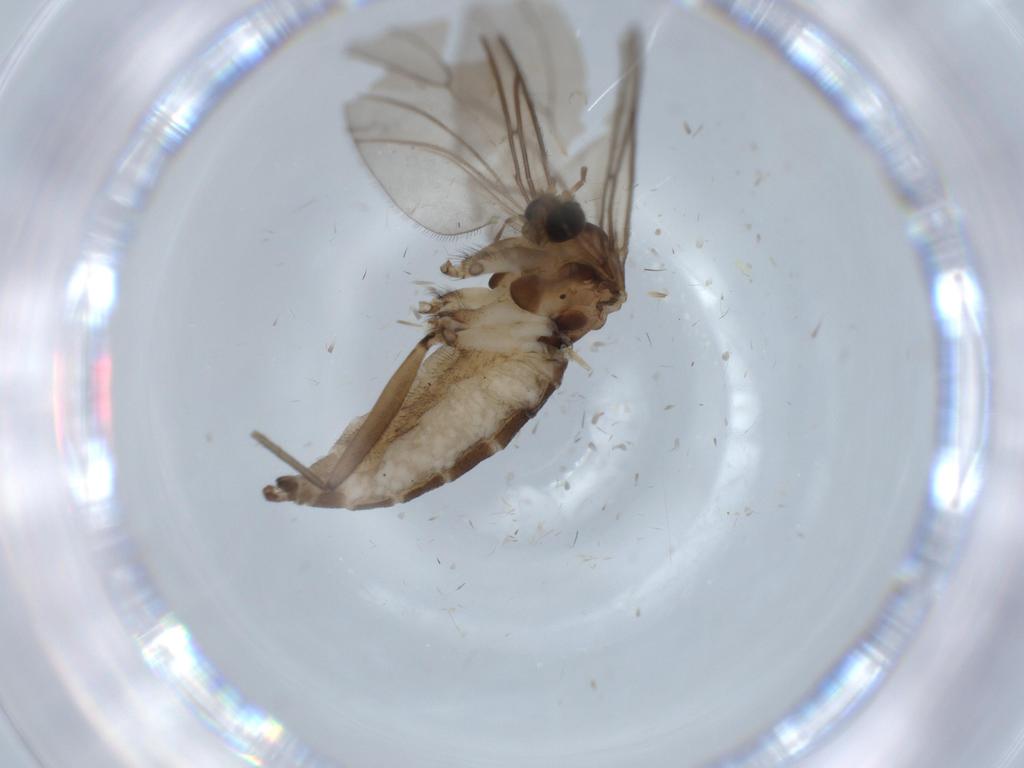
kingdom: Animalia
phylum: Arthropoda
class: Insecta
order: Diptera
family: Sciaridae
